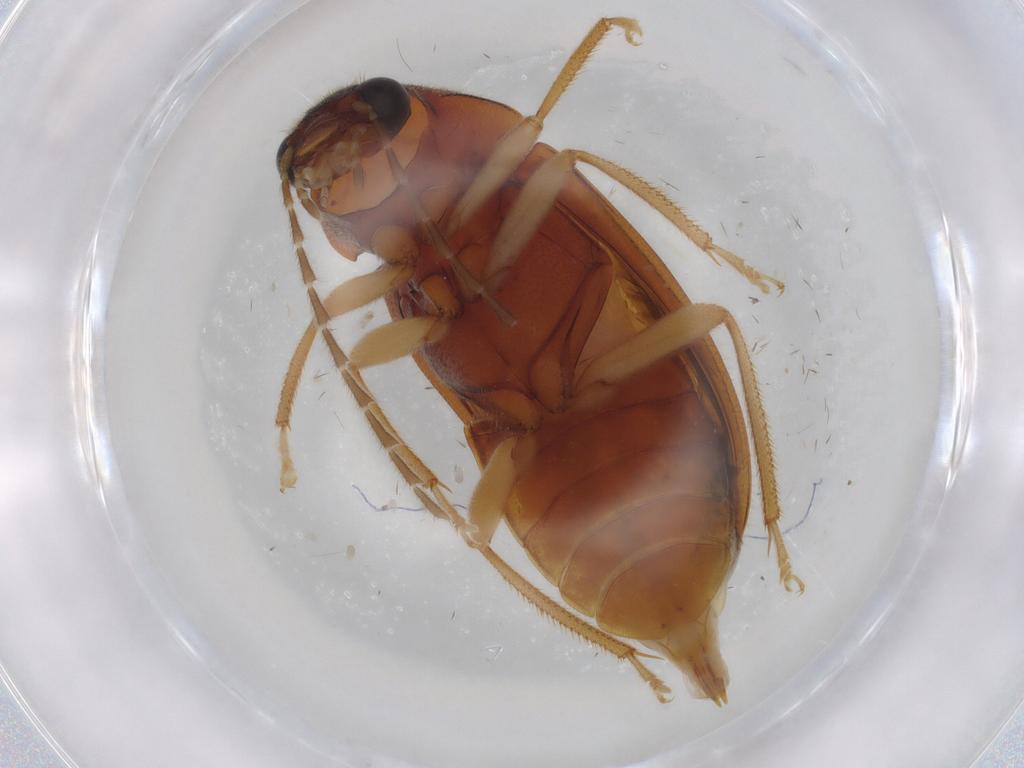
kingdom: Animalia
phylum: Arthropoda
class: Insecta
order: Coleoptera
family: Ptilodactylidae
